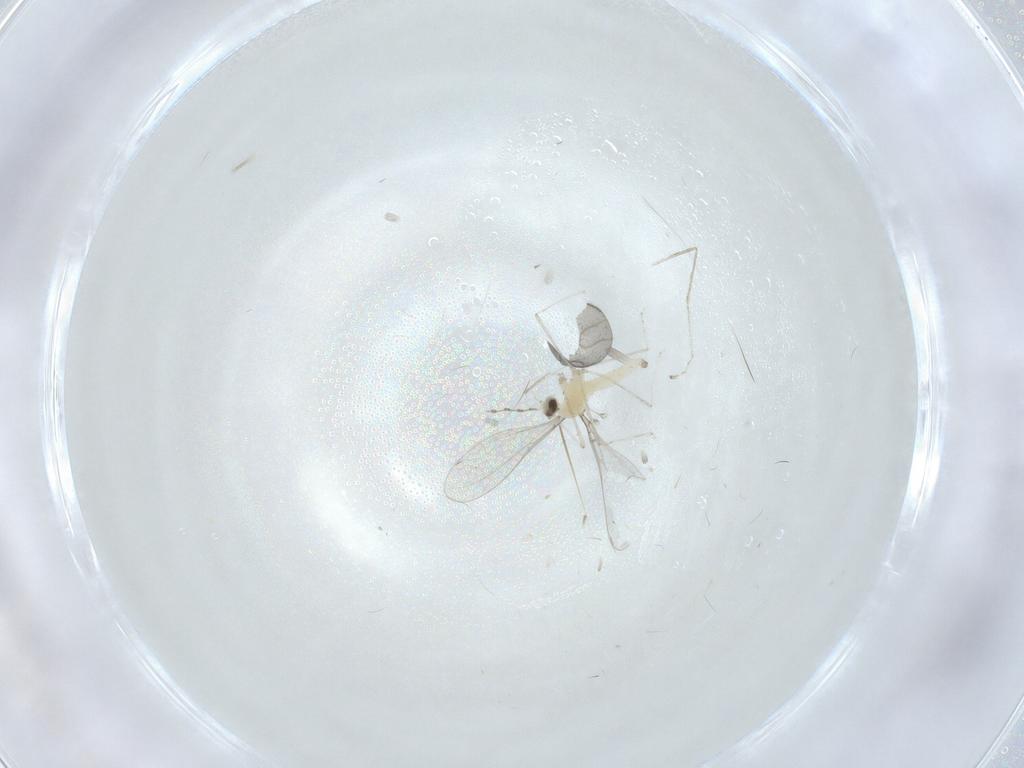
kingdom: Animalia
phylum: Arthropoda
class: Insecta
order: Diptera
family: Cecidomyiidae
